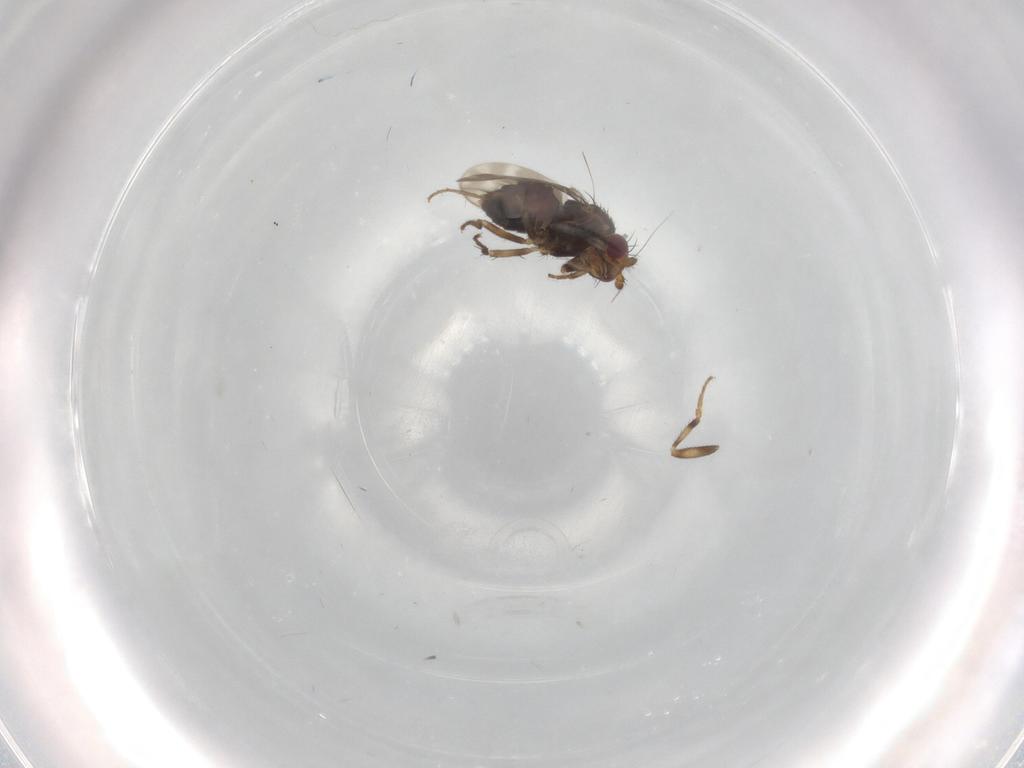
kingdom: Animalia
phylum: Arthropoda
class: Insecta
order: Diptera
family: Sphaeroceridae
